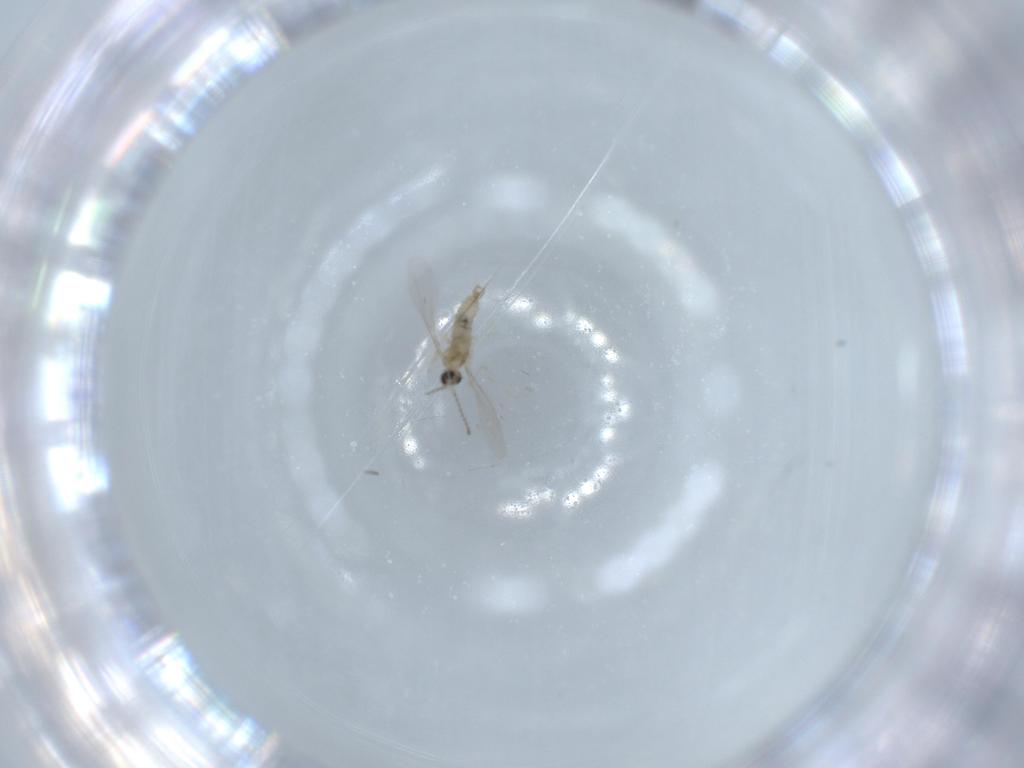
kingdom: Animalia
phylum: Arthropoda
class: Insecta
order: Diptera
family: Cecidomyiidae
